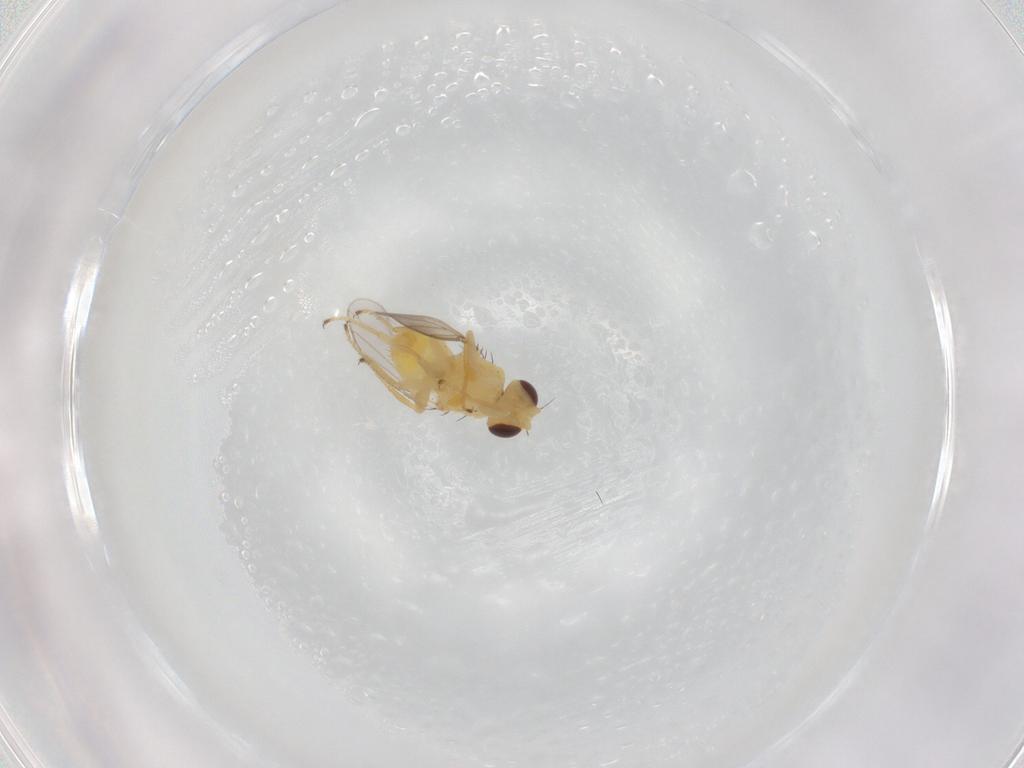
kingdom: Animalia
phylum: Arthropoda
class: Insecta
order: Diptera
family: Chloropidae
